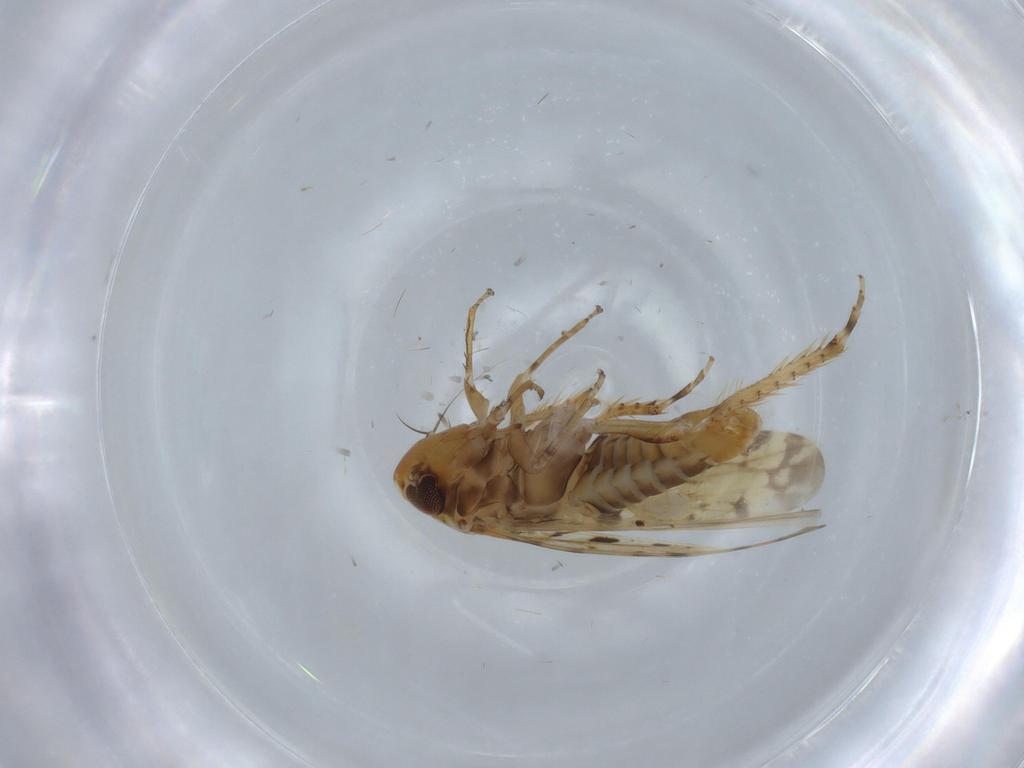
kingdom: Animalia
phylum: Arthropoda
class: Insecta
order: Hemiptera
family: Cicadellidae
